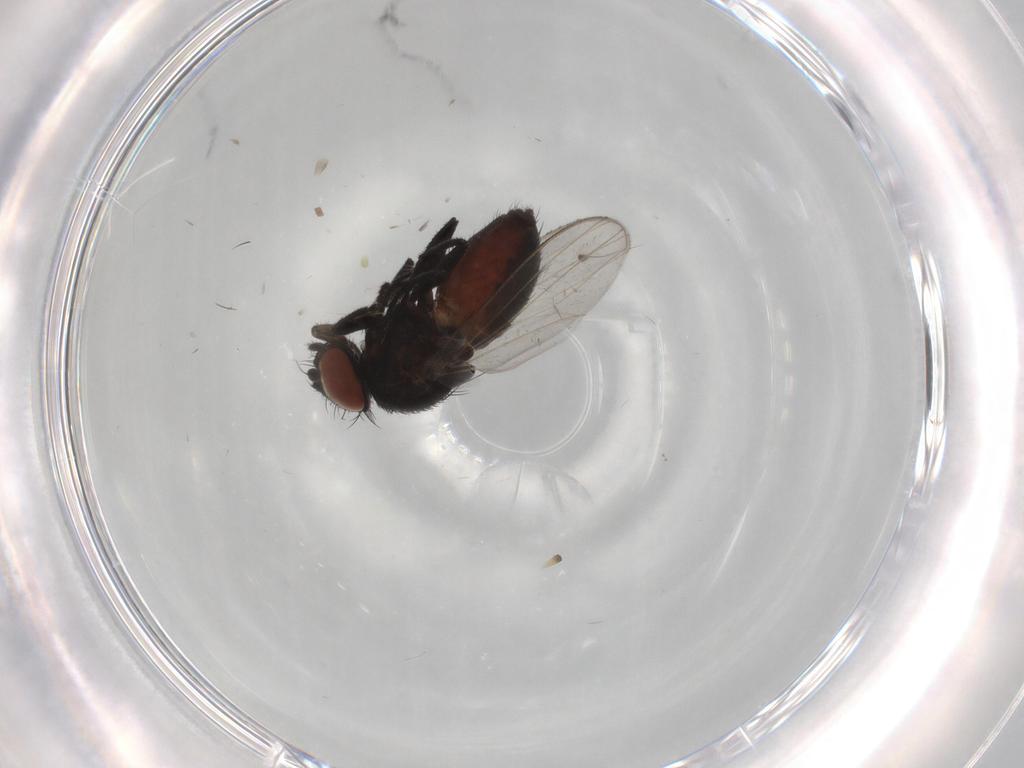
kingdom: Animalia
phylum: Arthropoda
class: Insecta
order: Diptera
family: Milichiidae
